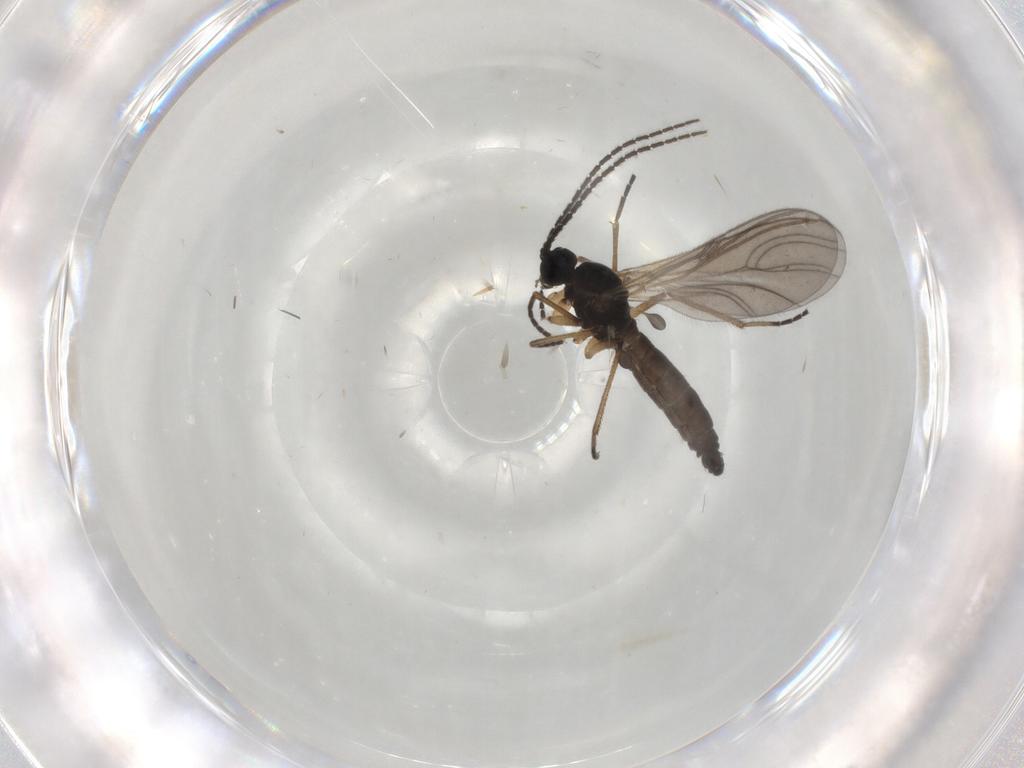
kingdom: Animalia
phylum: Arthropoda
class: Insecta
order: Diptera
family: Sciaridae
